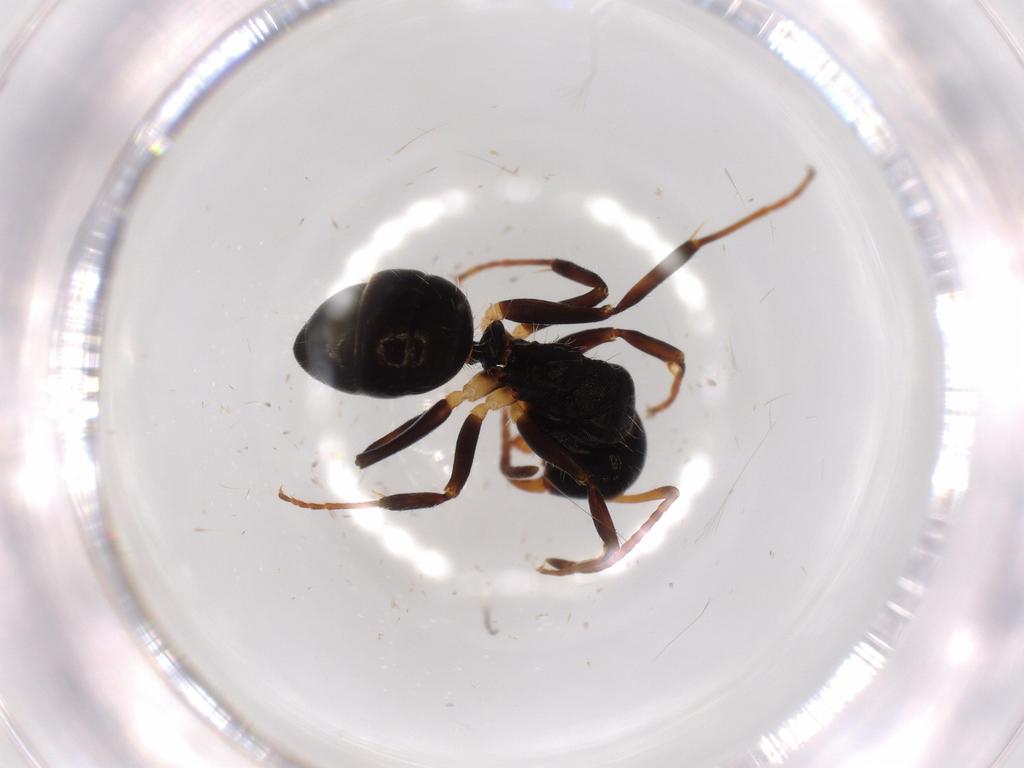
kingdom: Animalia
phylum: Arthropoda
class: Insecta
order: Hymenoptera
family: Formicidae
